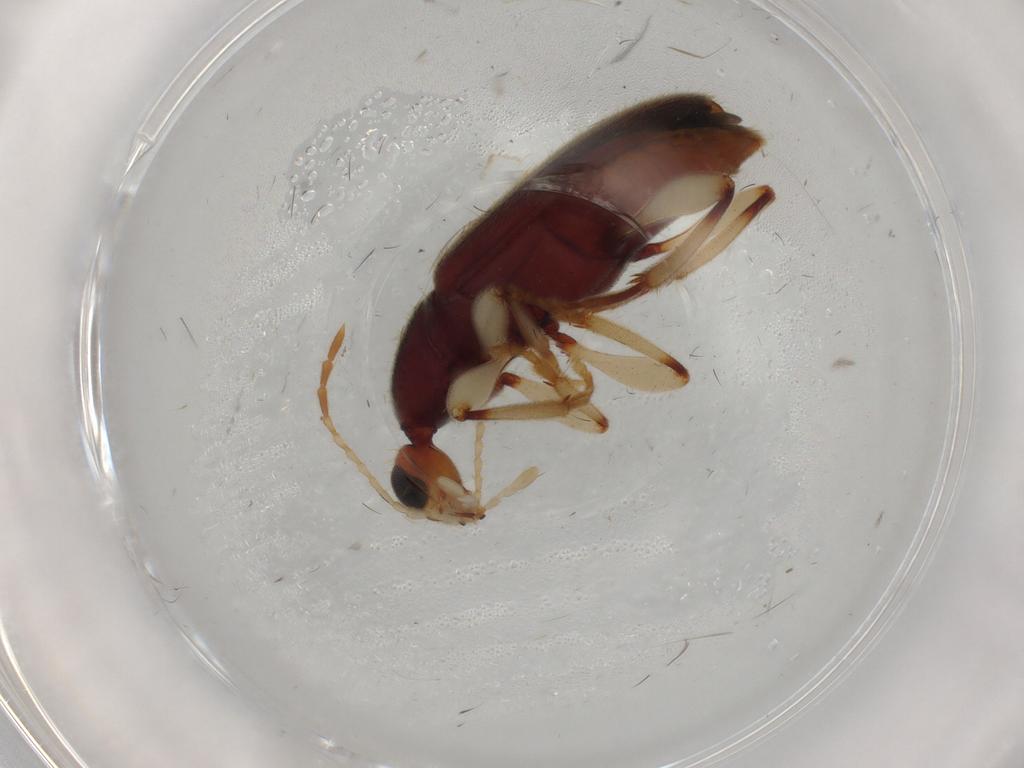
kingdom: Animalia
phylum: Arthropoda
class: Insecta
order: Coleoptera
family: Anthicidae
